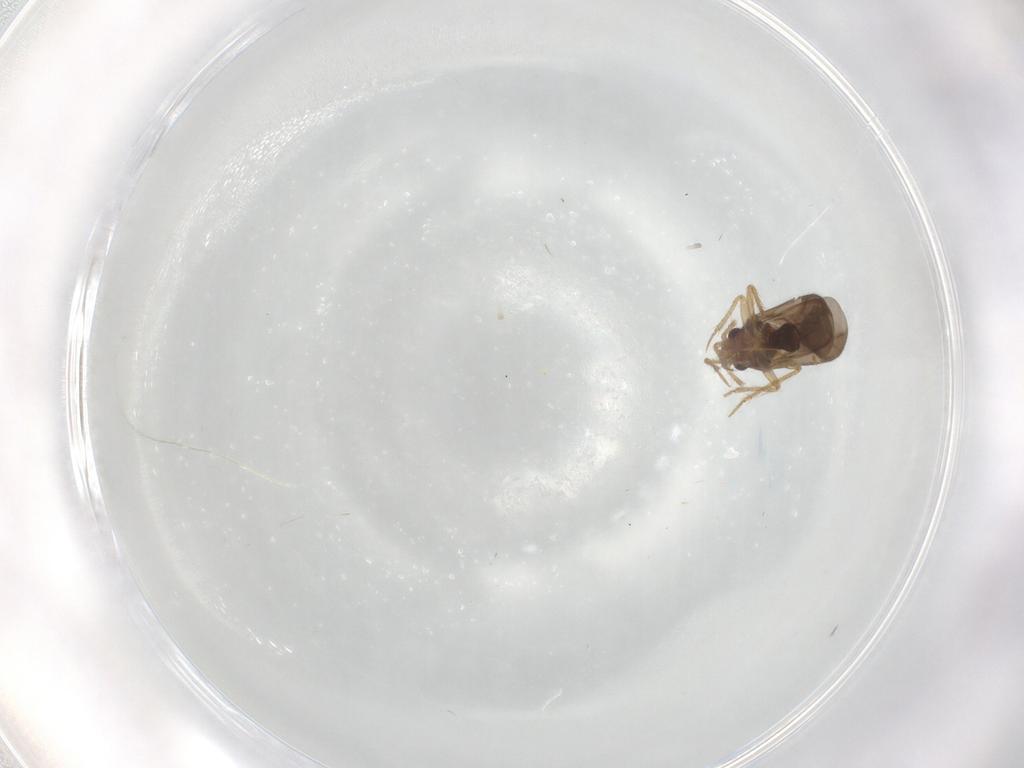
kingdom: Animalia
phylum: Arthropoda
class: Insecta
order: Hemiptera
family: Ceratocombidae
